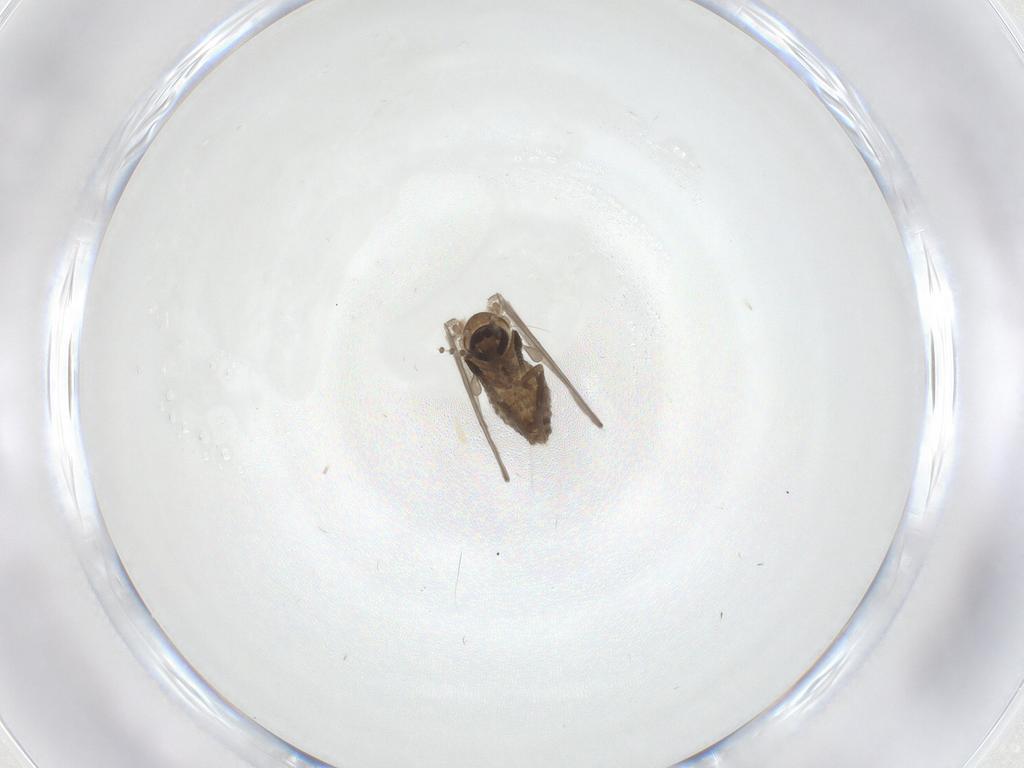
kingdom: Animalia
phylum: Arthropoda
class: Insecta
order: Diptera
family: Psychodidae
